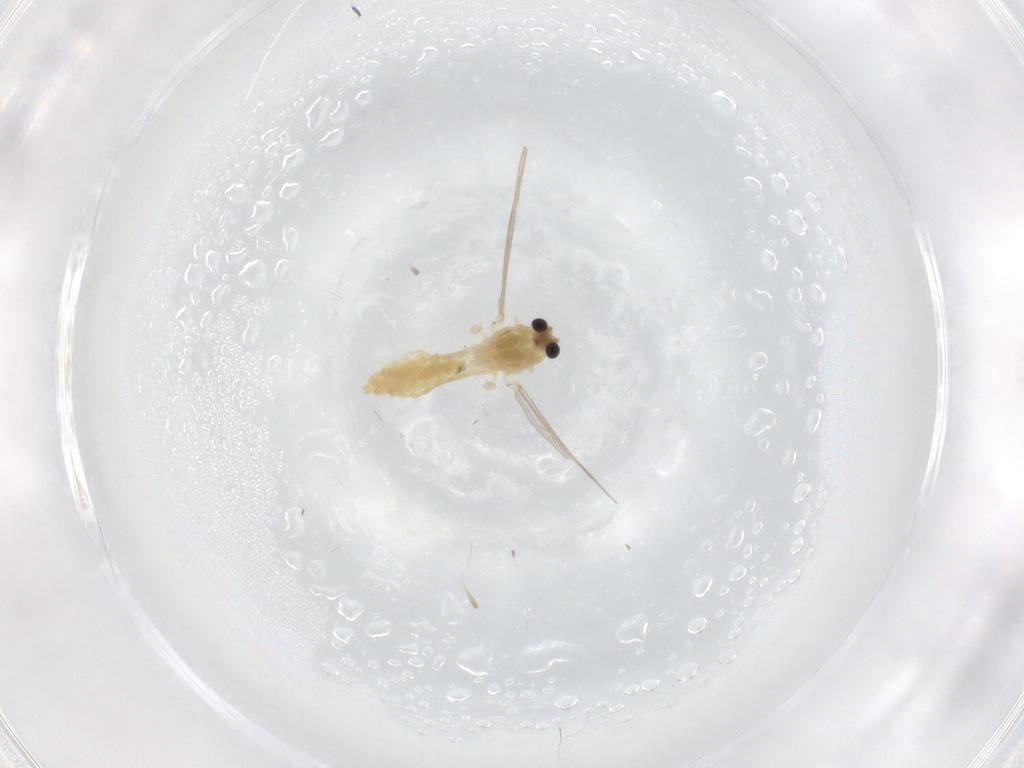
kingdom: Animalia
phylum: Arthropoda
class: Insecta
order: Diptera
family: Chironomidae
